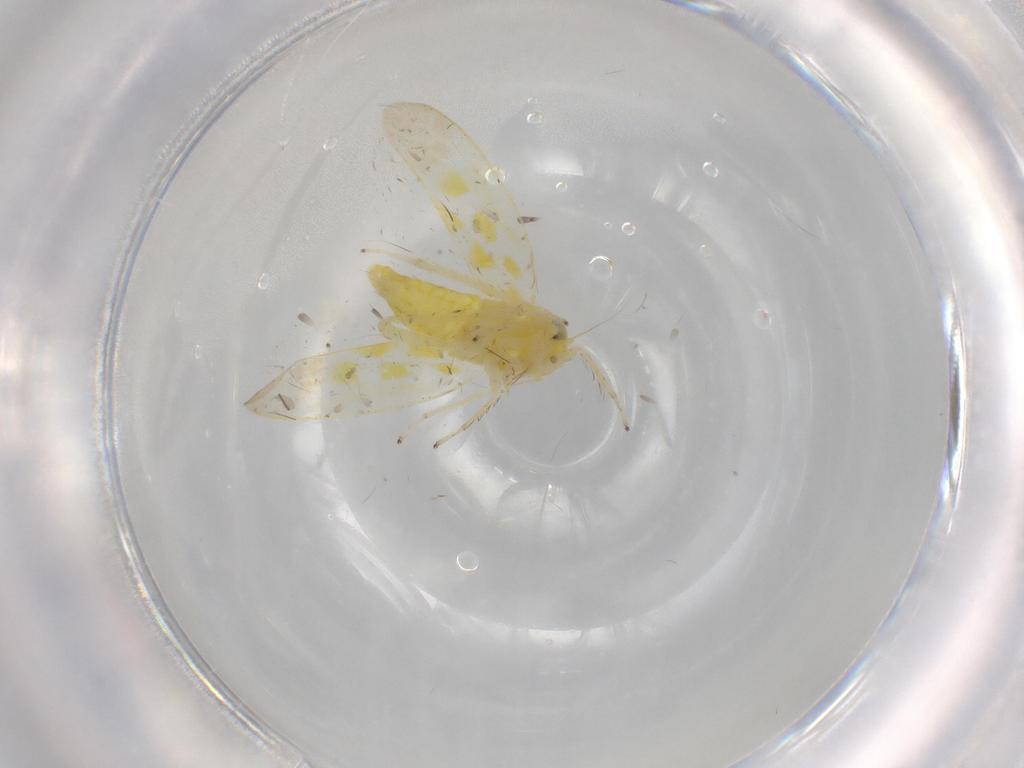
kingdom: Animalia
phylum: Arthropoda
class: Insecta
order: Hemiptera
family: Cicadellidae
